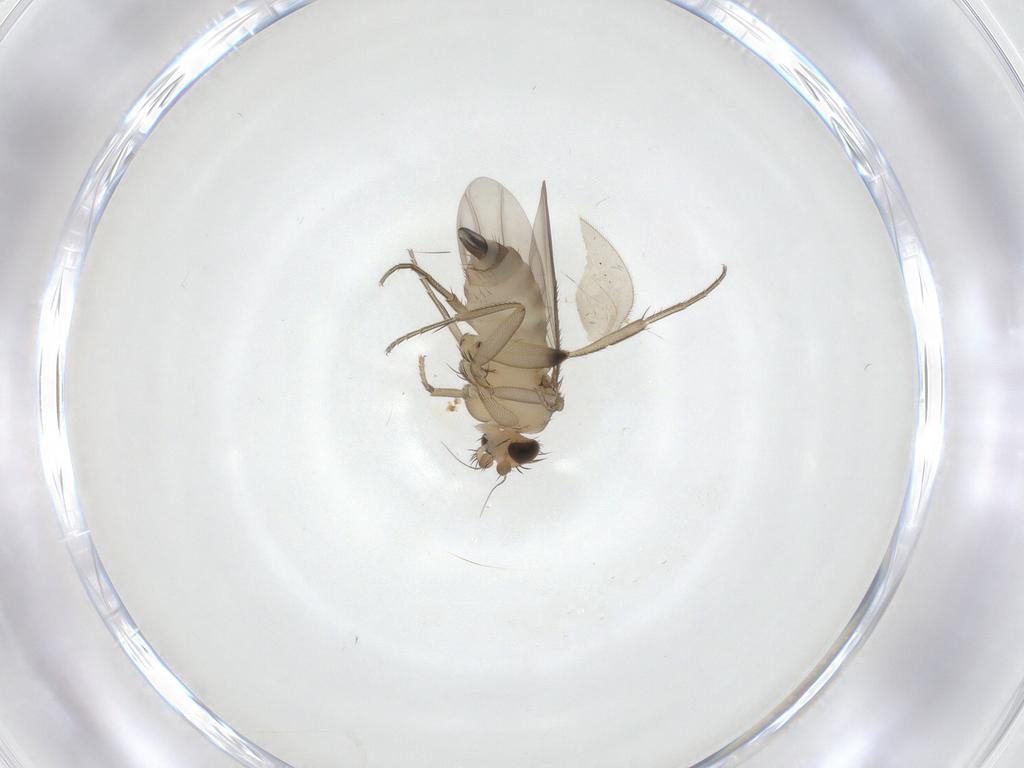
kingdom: Animalia
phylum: Arthropoda
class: Insecta
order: Diptera
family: Phoridae
